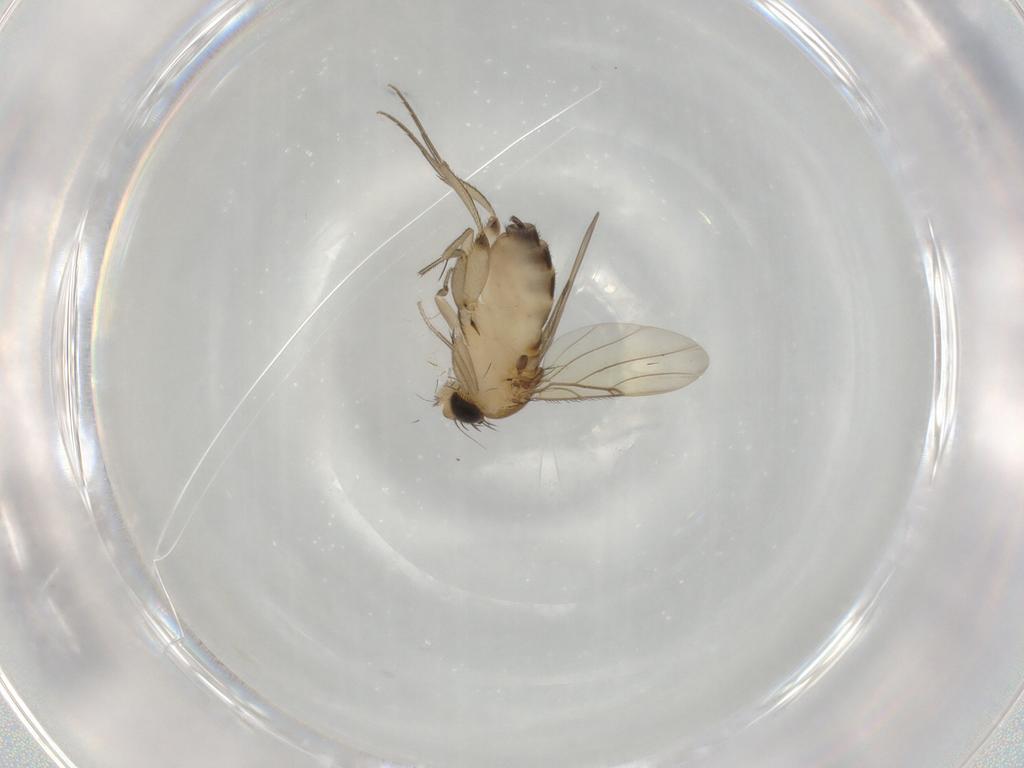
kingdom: Animalia
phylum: Arthropoda
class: Insecta
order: Diptera
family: Phoridae
